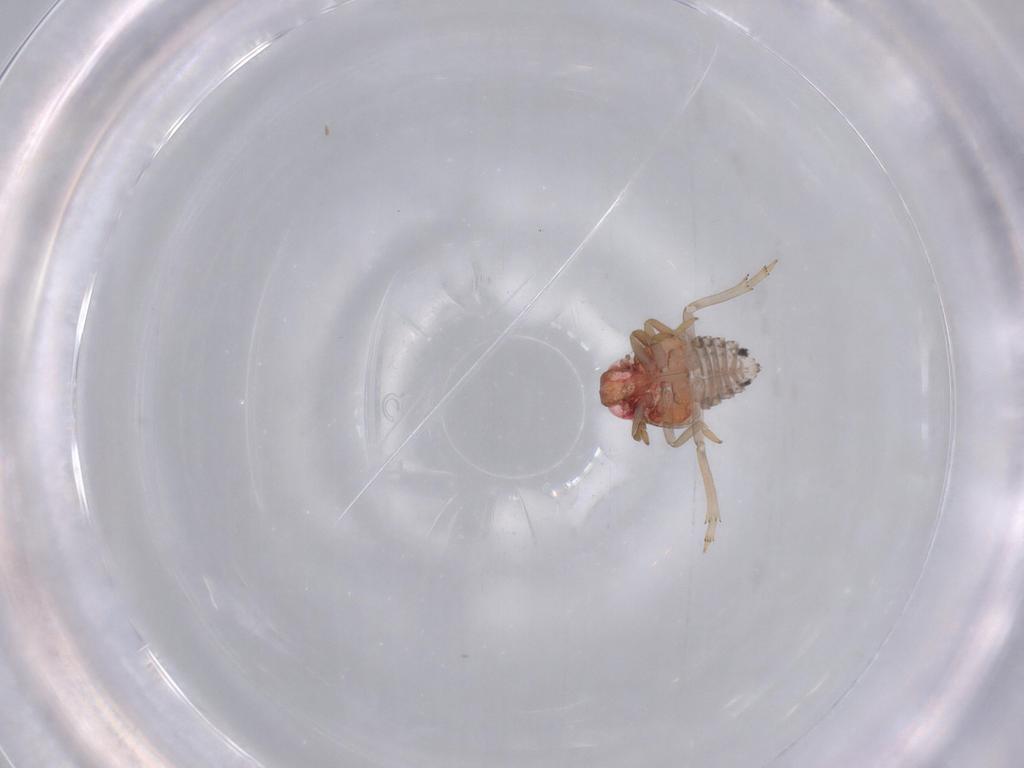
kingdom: Animalia
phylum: Arthropoda
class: Insecta
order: Hemiptera
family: Fulgoroidea_incertae_sedis
